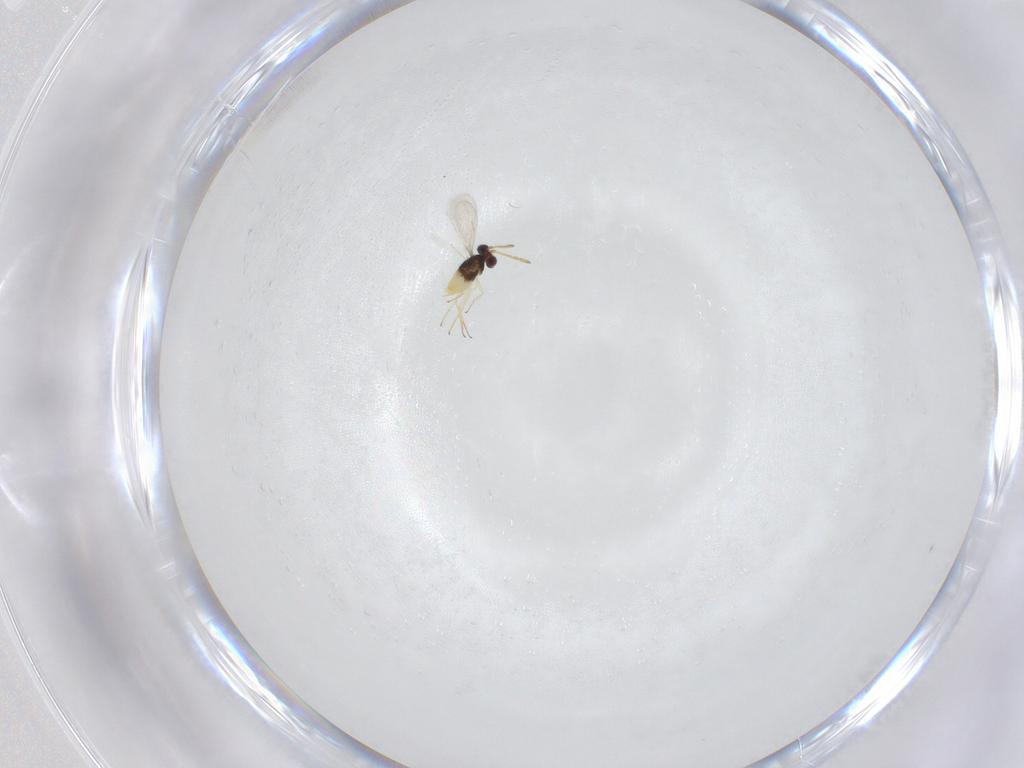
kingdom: Animalia
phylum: Arthropoda
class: Insecta
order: Hymenoptera
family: Aphelinidae
